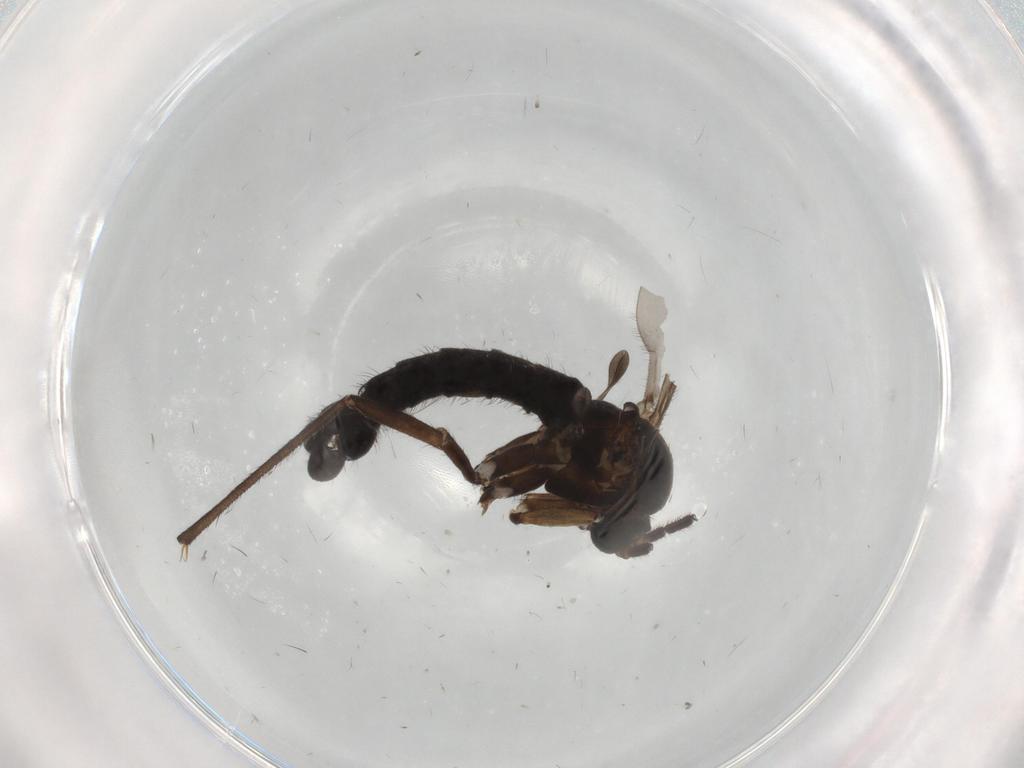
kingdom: Animalia
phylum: Arthropoda
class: Insecta
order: Diptera
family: Sciaridae
